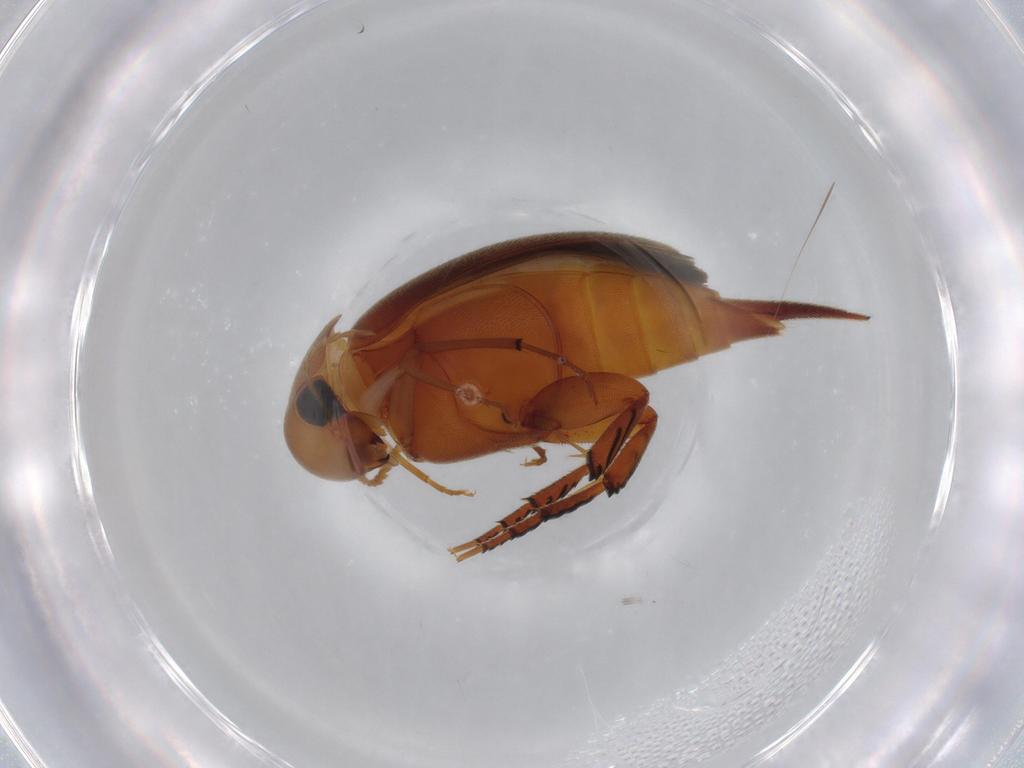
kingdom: Animalia
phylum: Arthropoda
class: Insecta
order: Coleoptera
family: Mordellidae
